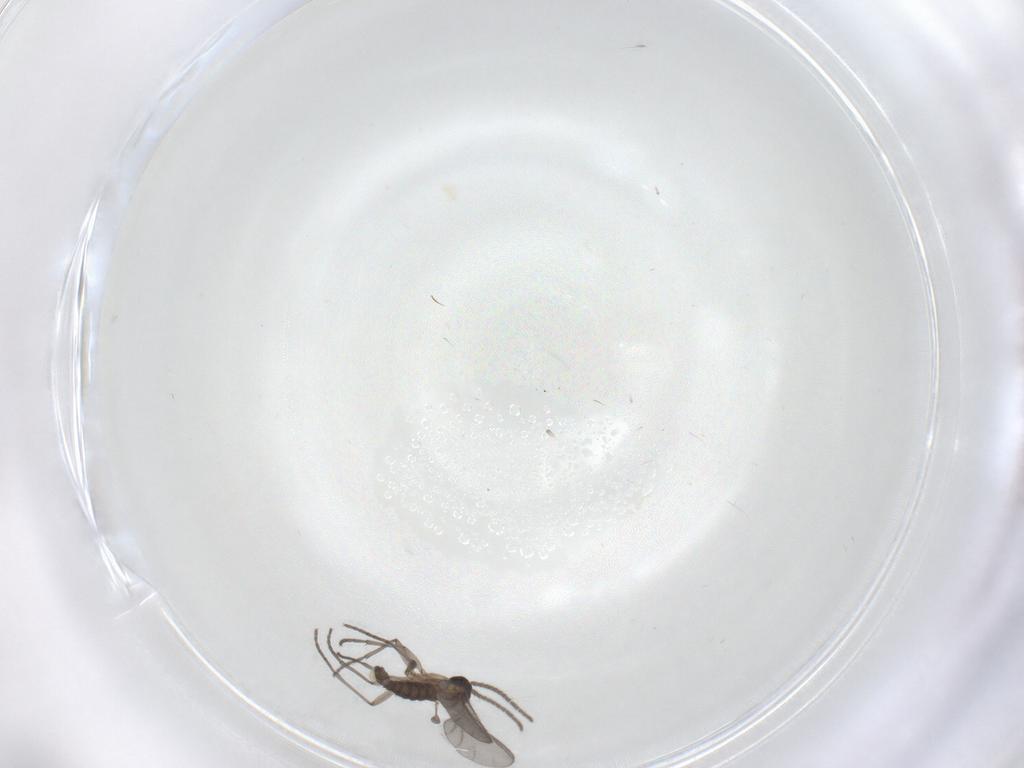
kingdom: Animalia
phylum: Arthropoda
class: Insecta
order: Diptera
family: Sciaridae
